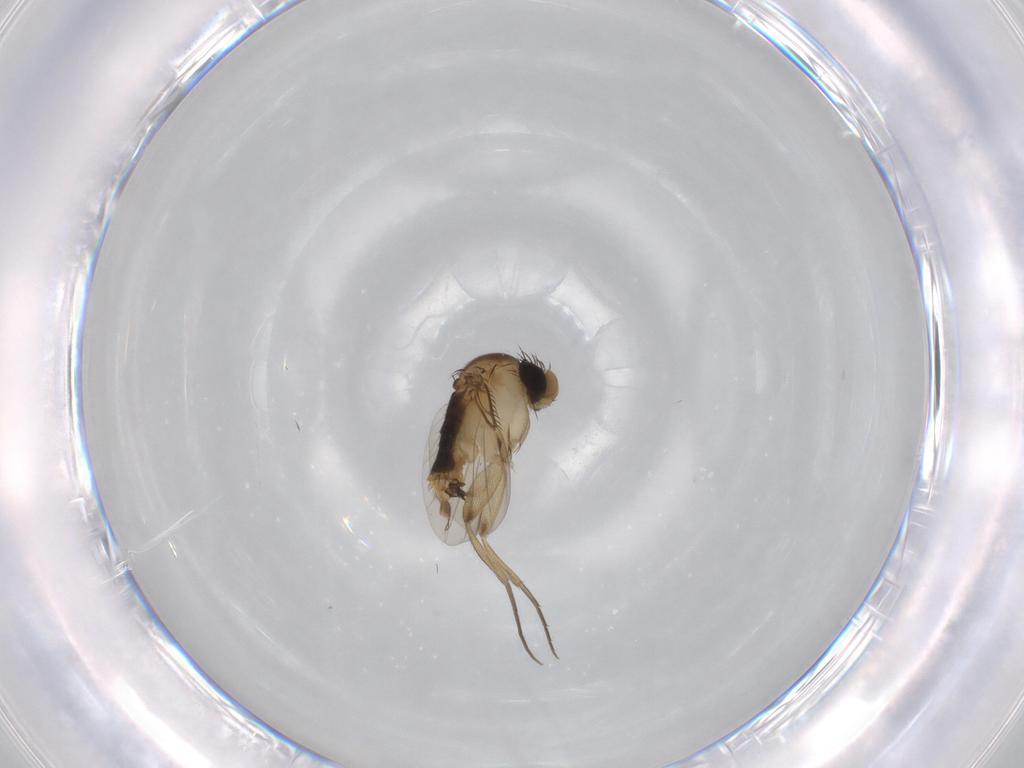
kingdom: Animalia
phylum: Arthropoda
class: Insecta
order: Diptera
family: Phoridae
